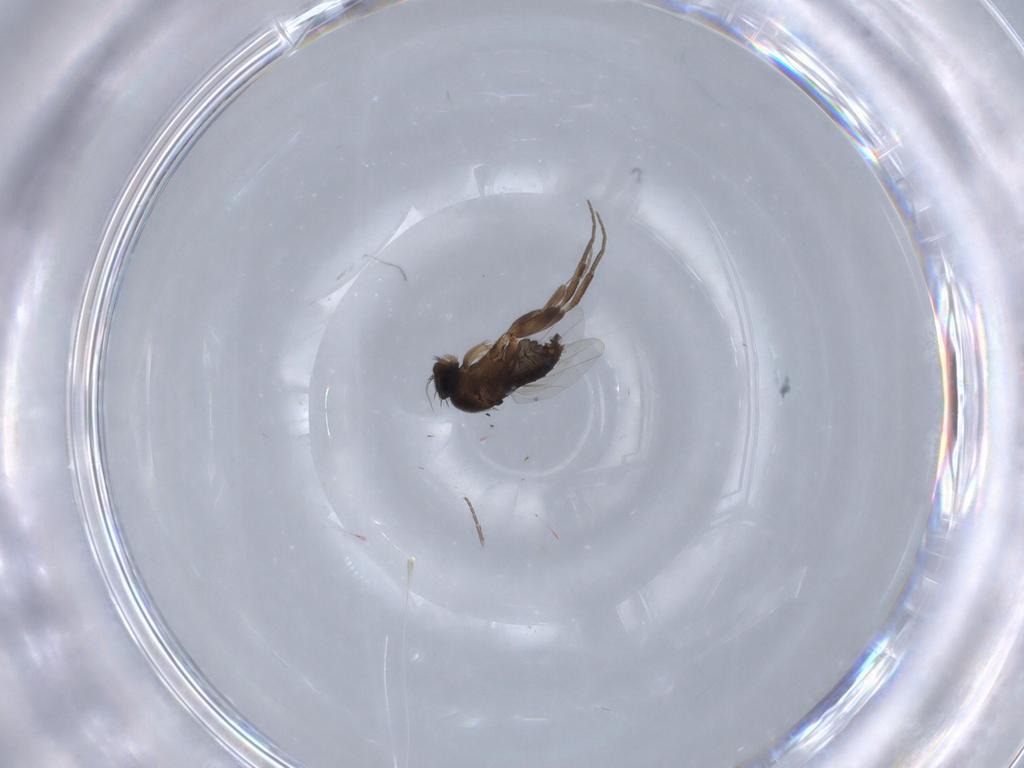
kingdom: Animalia
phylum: Arthropoda
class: Insecta
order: Diptera
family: Phoridae
